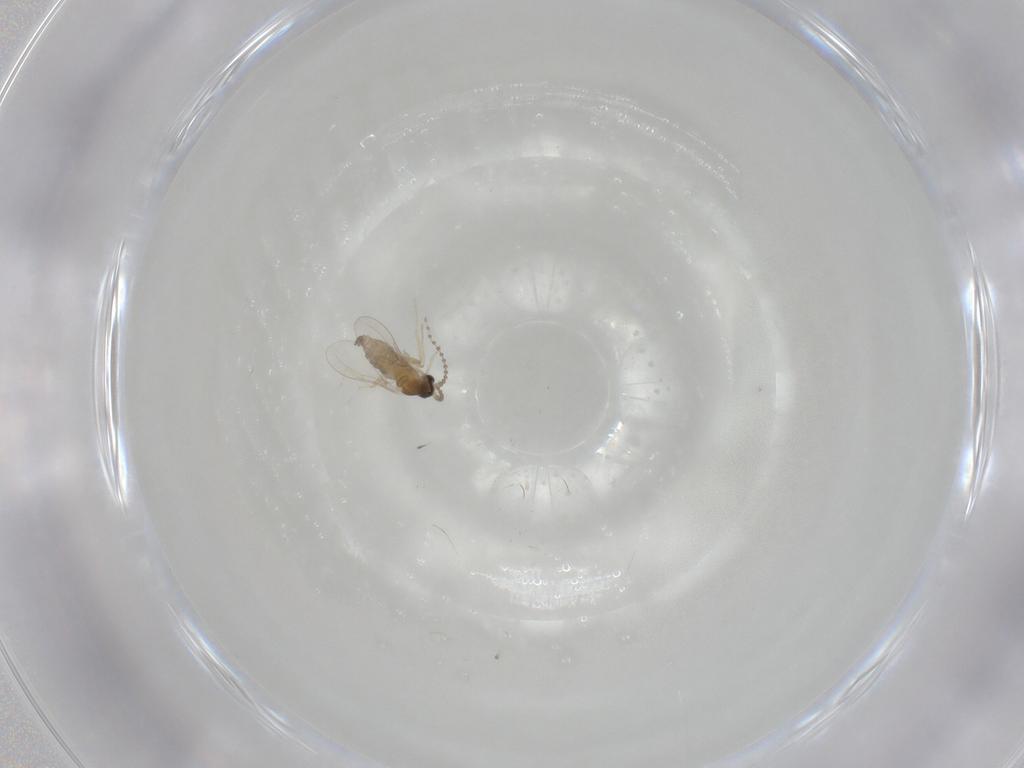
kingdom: Animalia
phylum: Arthropoda
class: Insecta
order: Diptera
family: Cecidomyiidae
